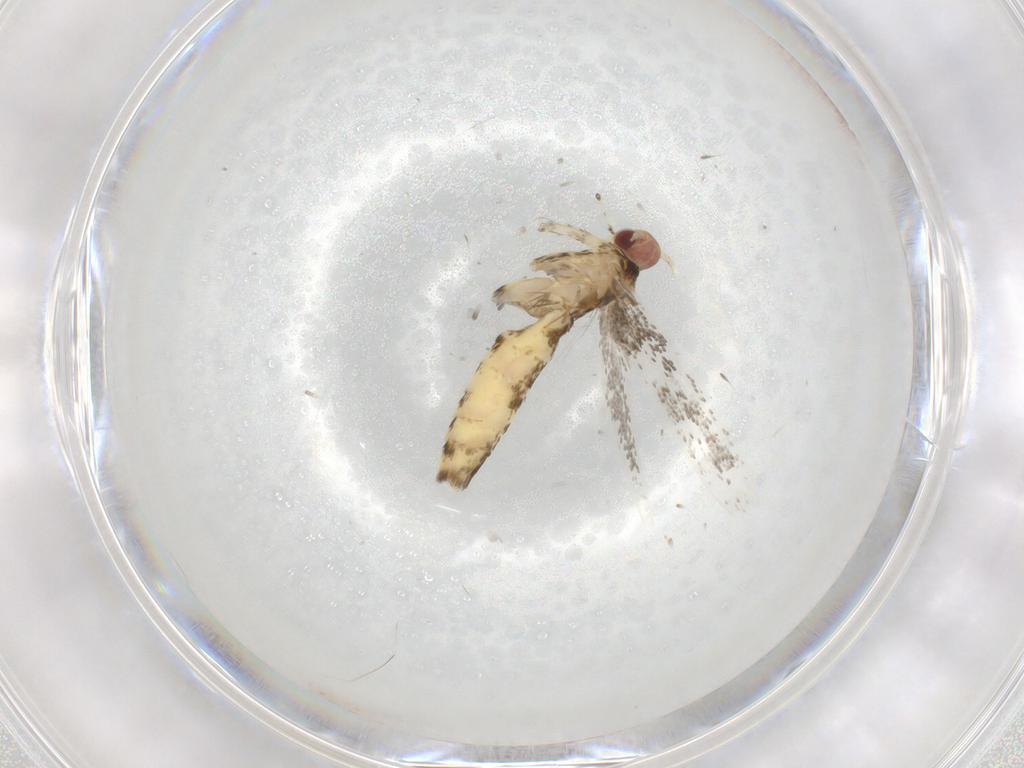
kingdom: Animalia
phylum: Arthropoda
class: Insecta
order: Lepidoptera
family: Gracillariidae
